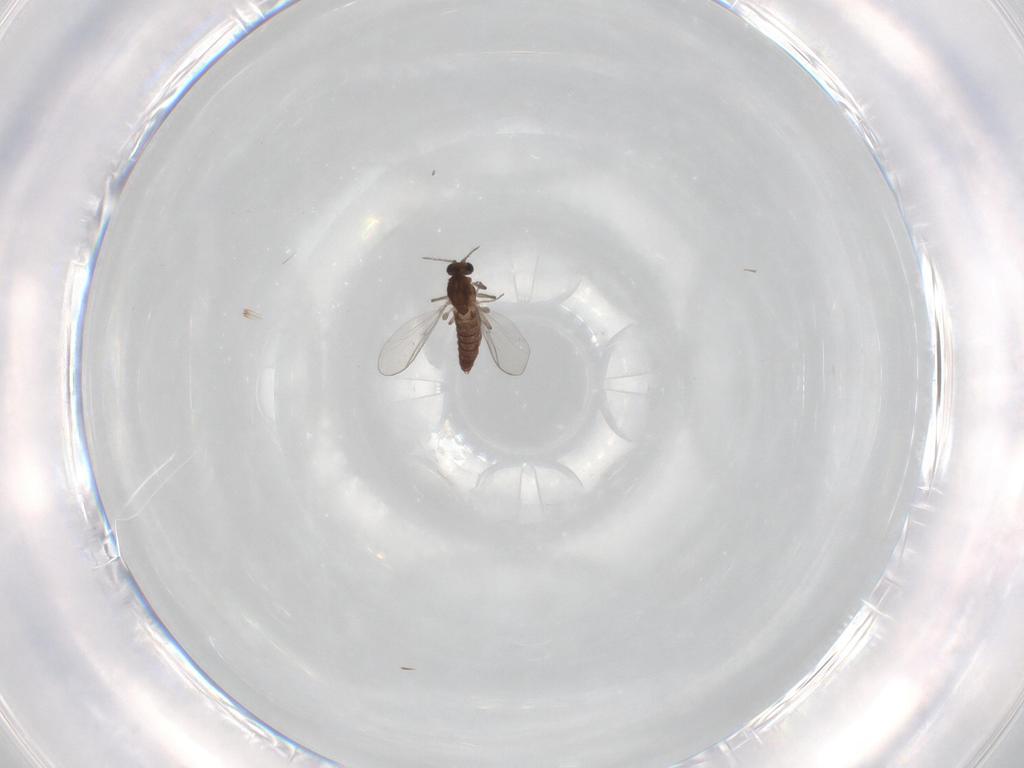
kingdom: Animalia
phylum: Arthropoda
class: Insecta
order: Diptera
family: Chironomidae
